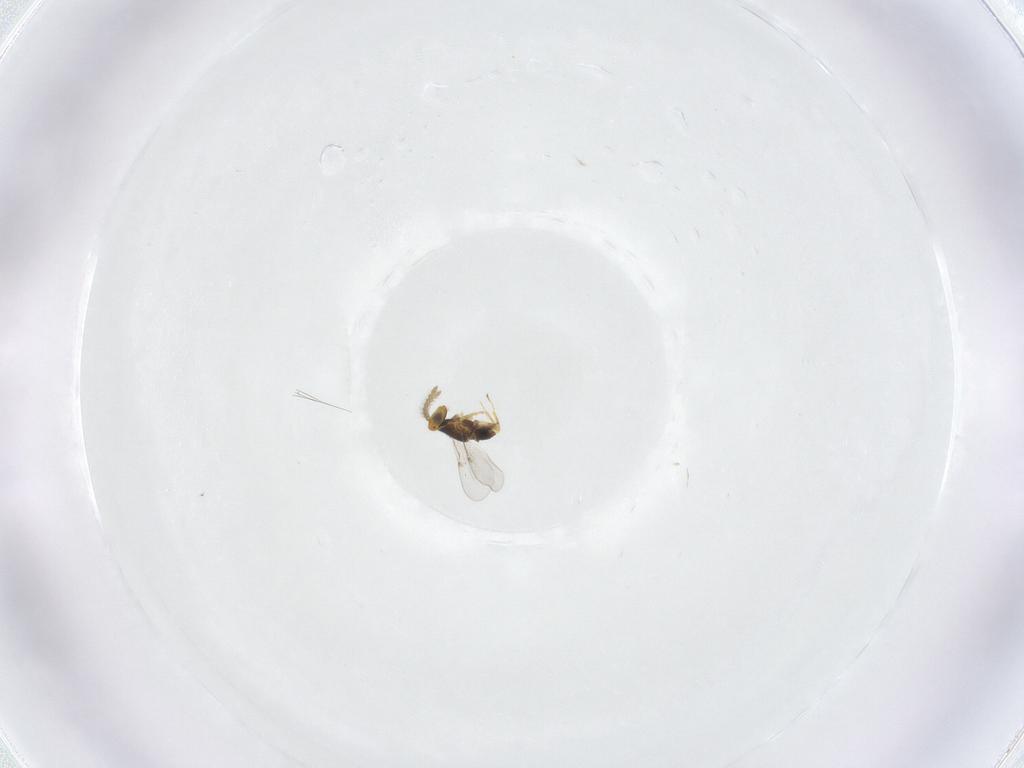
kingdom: Animalia
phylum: Arthropoda
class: Insecta
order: Hymenoptera
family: Encyrtidae
